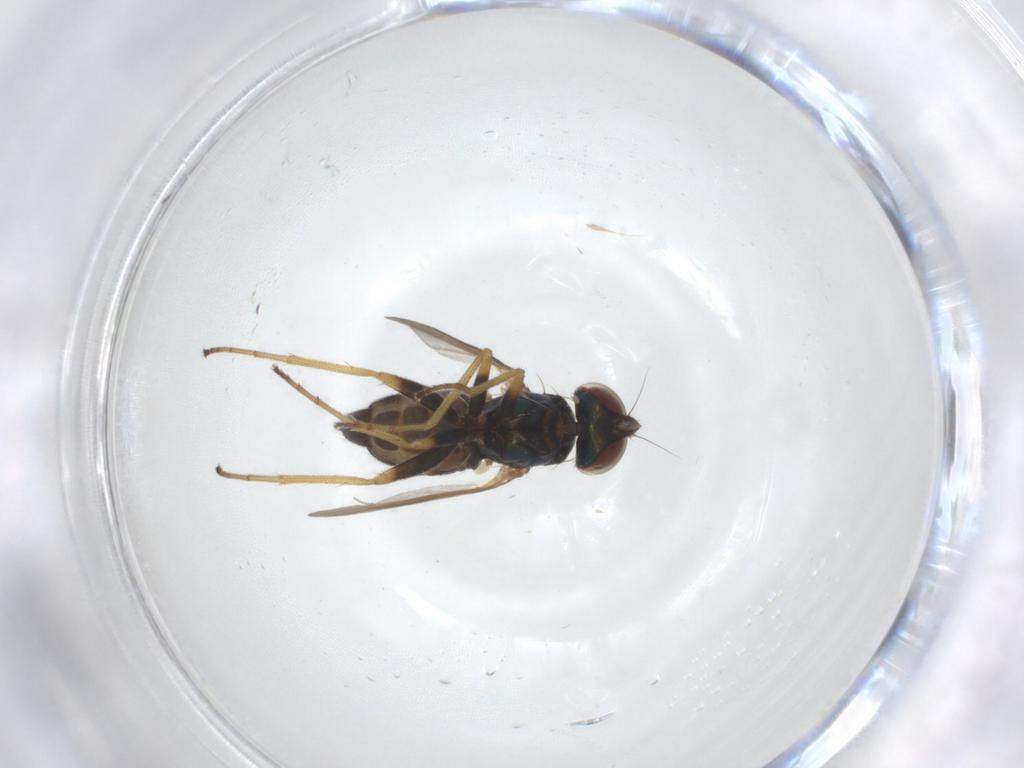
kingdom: Animalia
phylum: Arthropoda
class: Insecta
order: Diptera
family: Dolichopodidae
